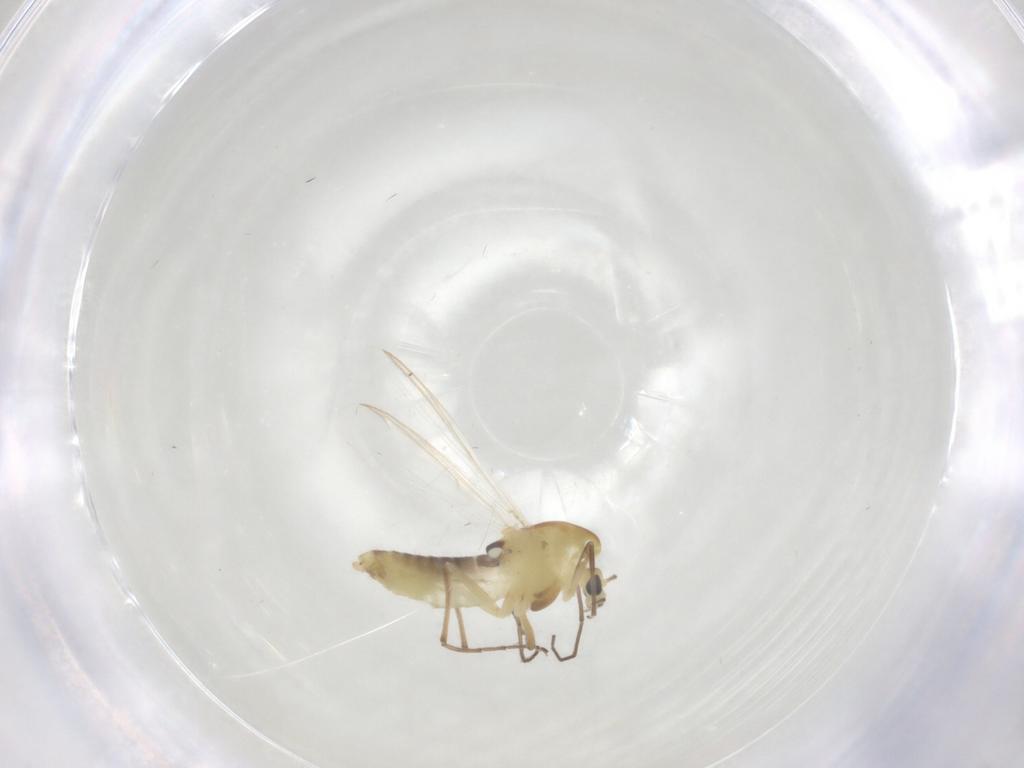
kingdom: Animalia
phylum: Arthropoda
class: Insecta
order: Diptera
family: Chironomidae
